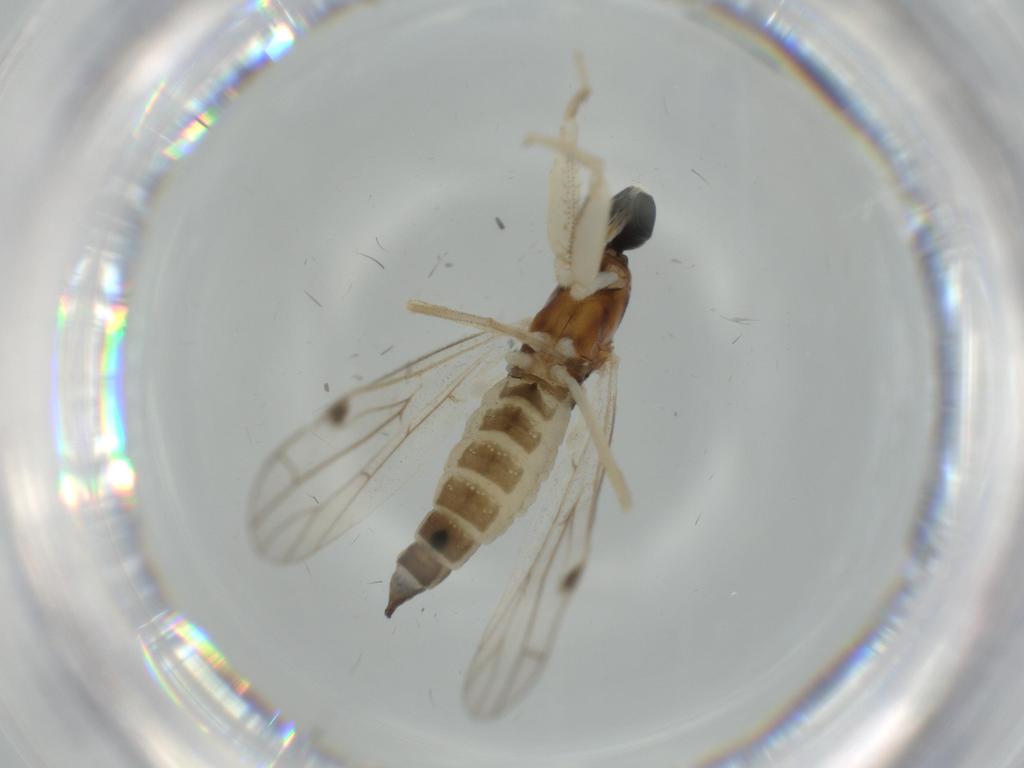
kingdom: Animalia
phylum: Arthropoda
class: Insecta
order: Diptera
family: Empididae
